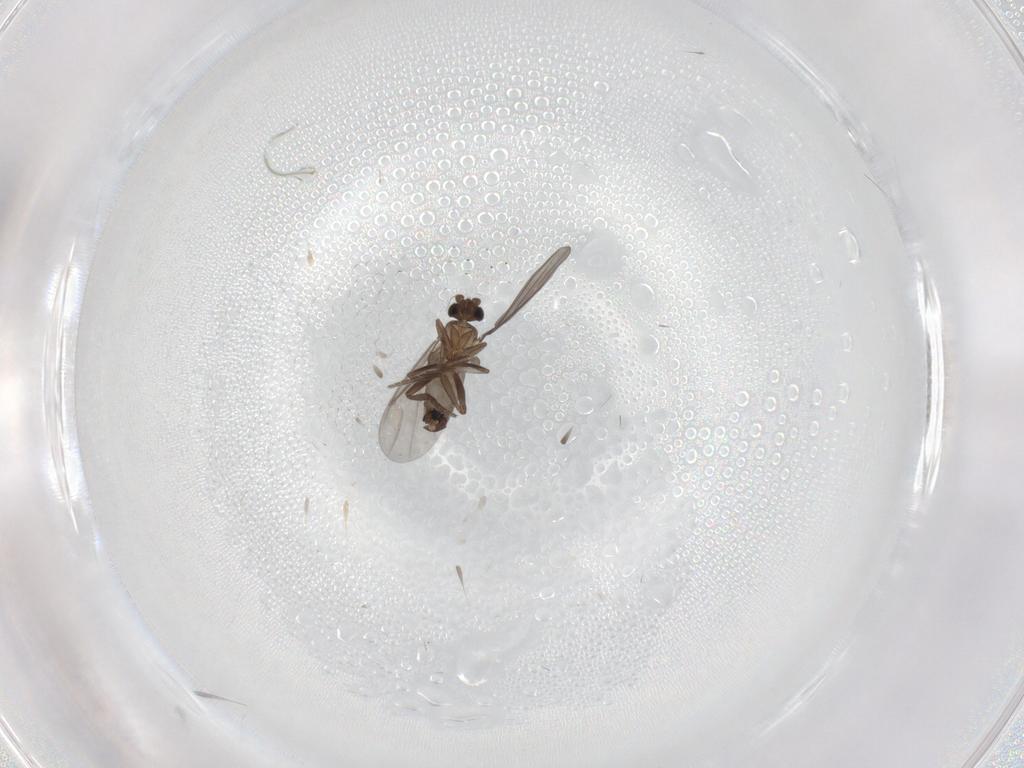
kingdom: Animalia
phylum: Arthropoda
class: Insecta
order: Diptera
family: Phoridae
